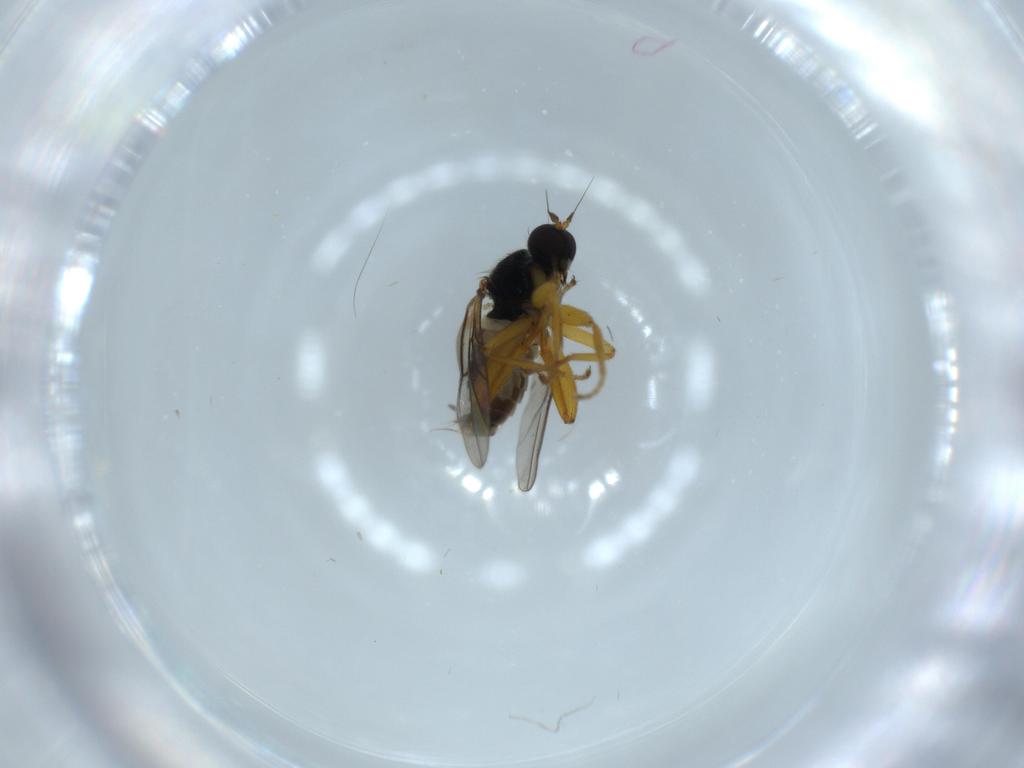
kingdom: Animalia
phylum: Arthropoda
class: Insecta
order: Diptera
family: Hybotidae
